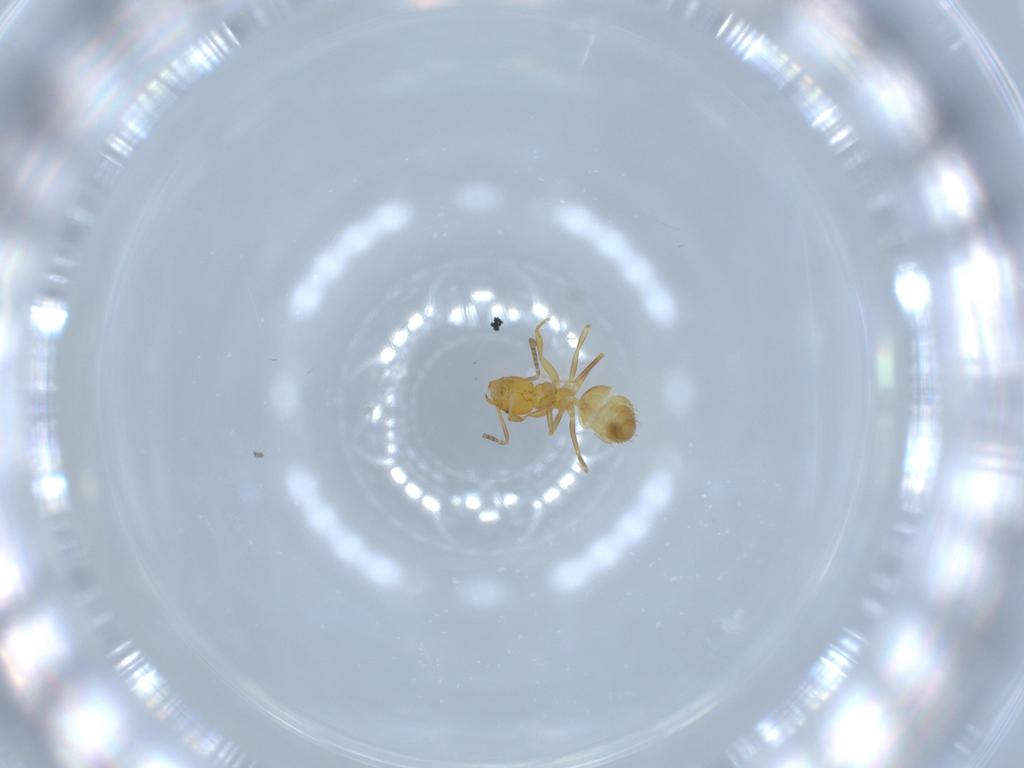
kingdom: Animalia
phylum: Arthropoda
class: Insecta
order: Hymenoptera
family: Formicidae
